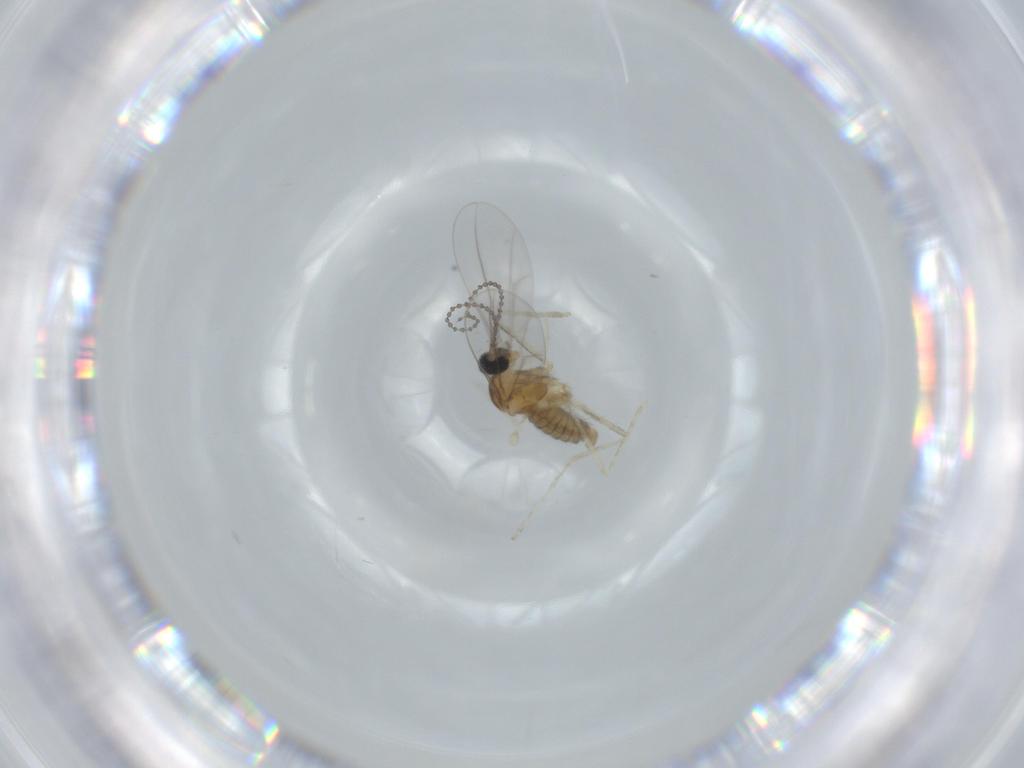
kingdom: Animalia
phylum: Arthropoda
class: Insecta
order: Diptera
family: Cecidomyiidae
